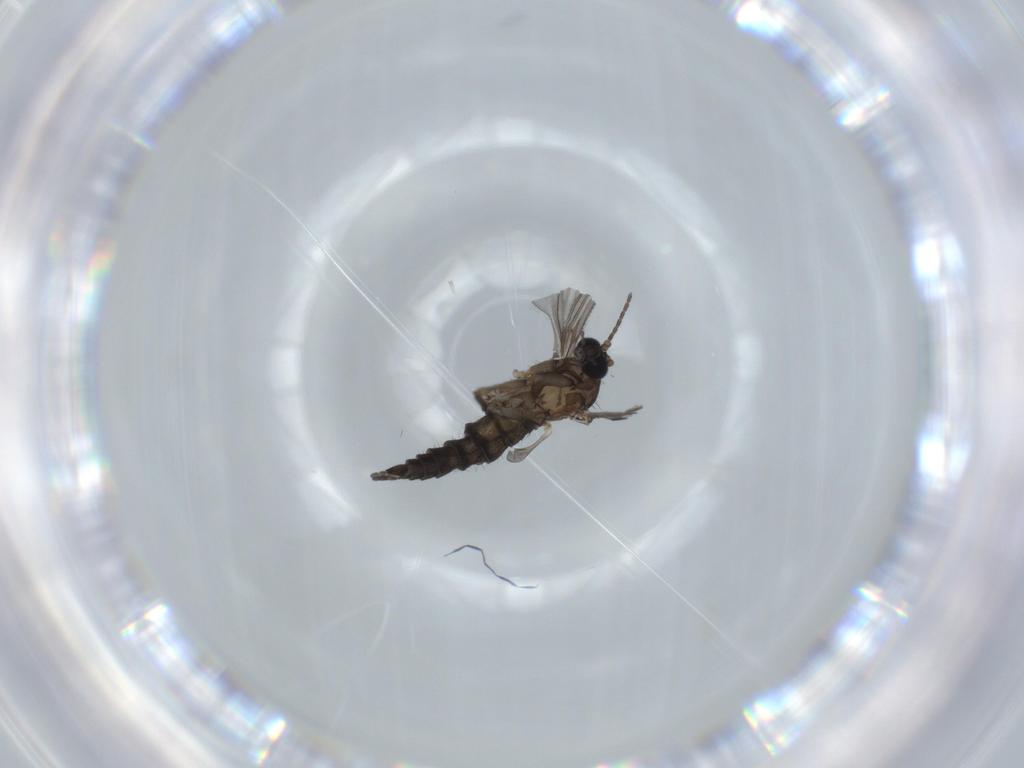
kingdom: Animalia
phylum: Arthropoda
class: Insecta
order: Diptera
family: Sciaridae
